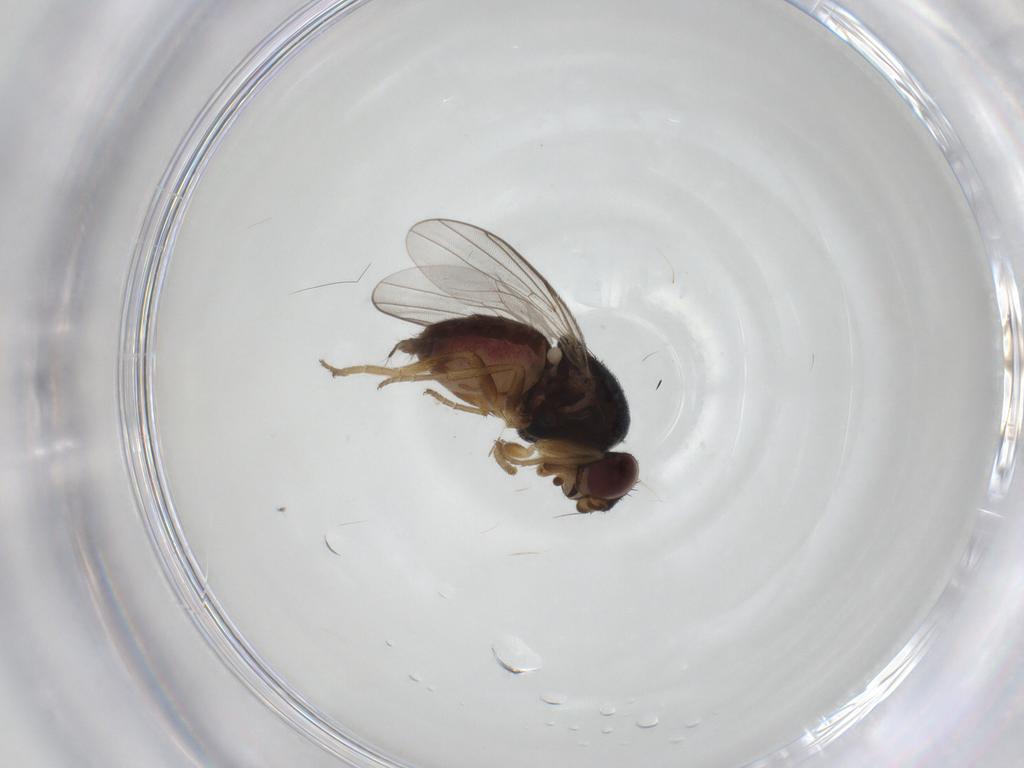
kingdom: Animalia
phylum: Arthropoda
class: Insecta
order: Diptera
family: Chloropidae
